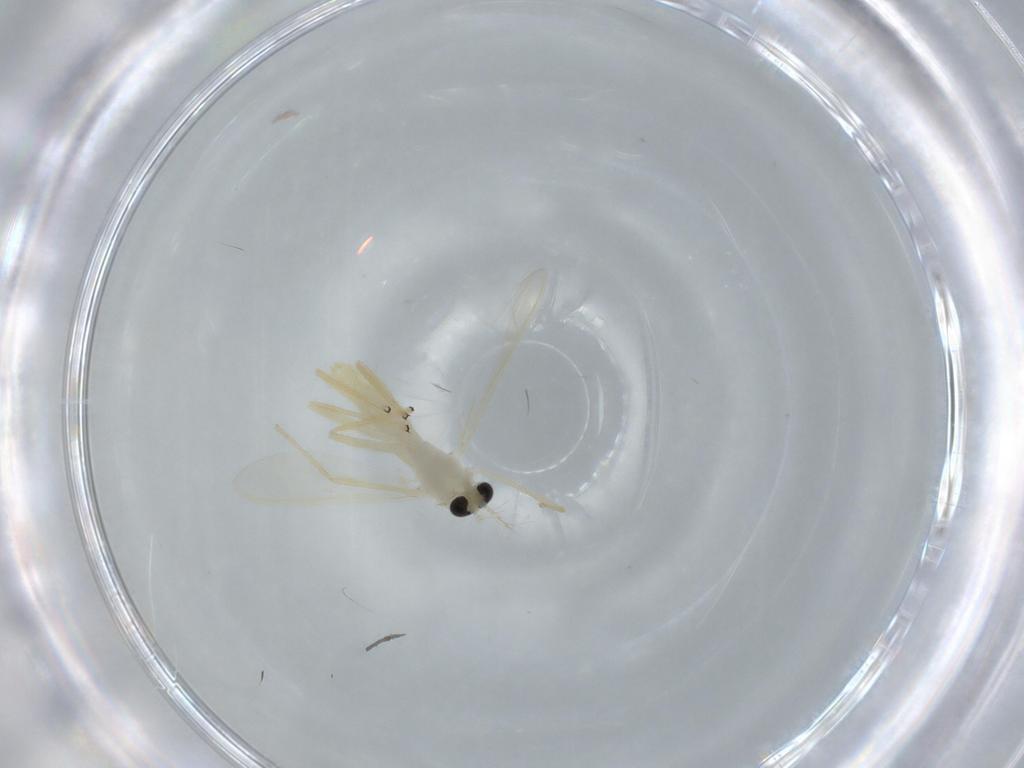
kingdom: Animalia
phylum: Arthropoda
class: Insecta
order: Diptera
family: Chironomidae
